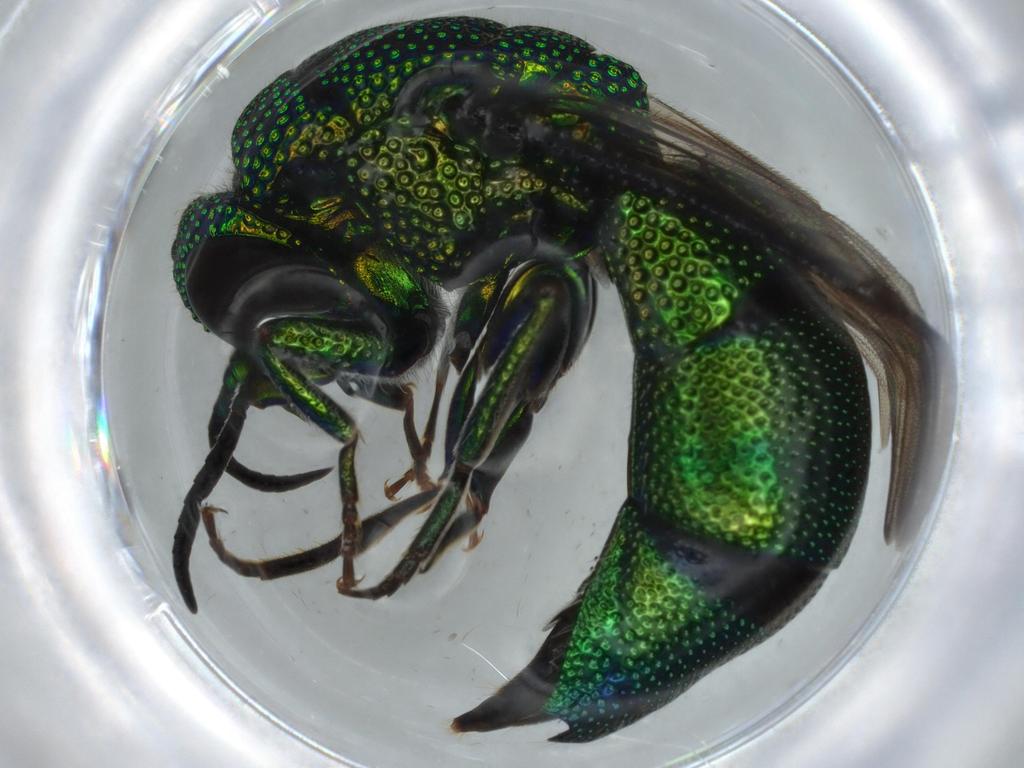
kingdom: Animalia
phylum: Arthropoda
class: Insecta
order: Hymenoptera
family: Chrysididae
